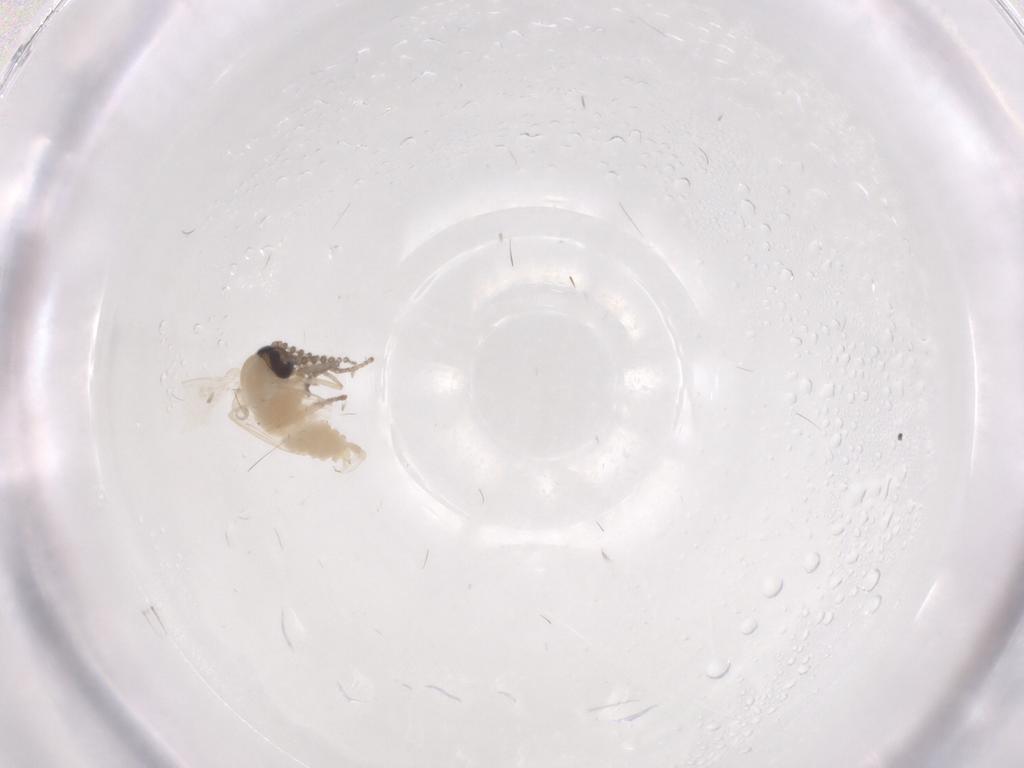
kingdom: Animalia
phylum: Arthropoda
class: Insecta
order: Diptera
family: Psychodidae
